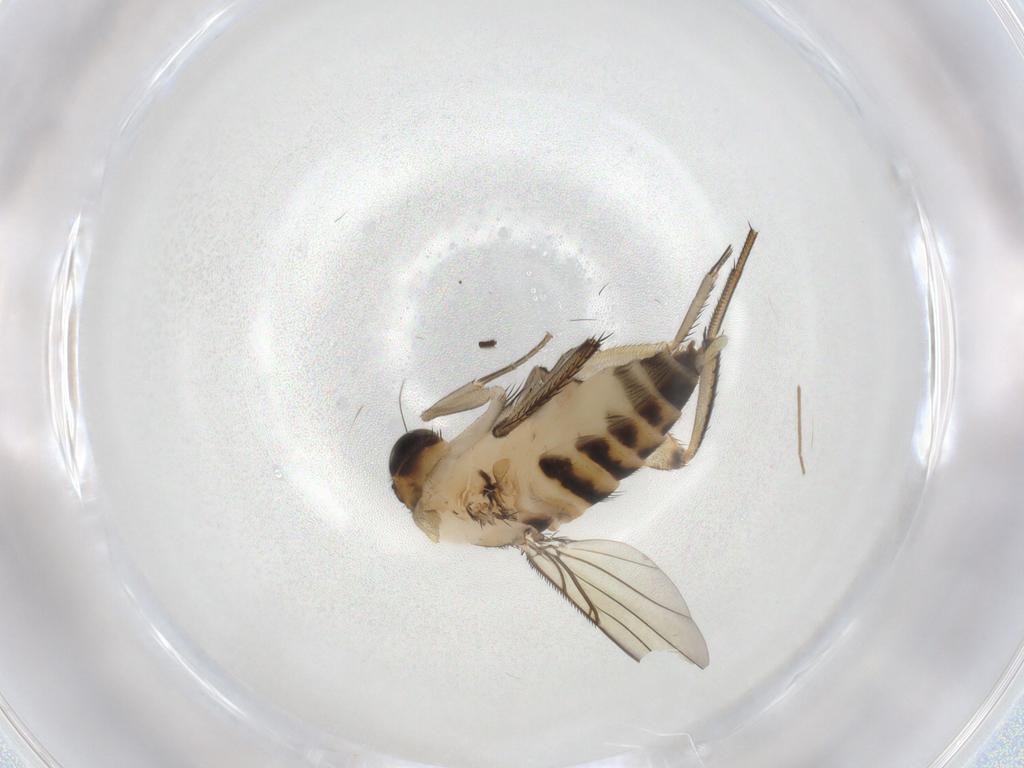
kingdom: Animalia
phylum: Arthropoda
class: Insecta
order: Diptera
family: Phoridae
